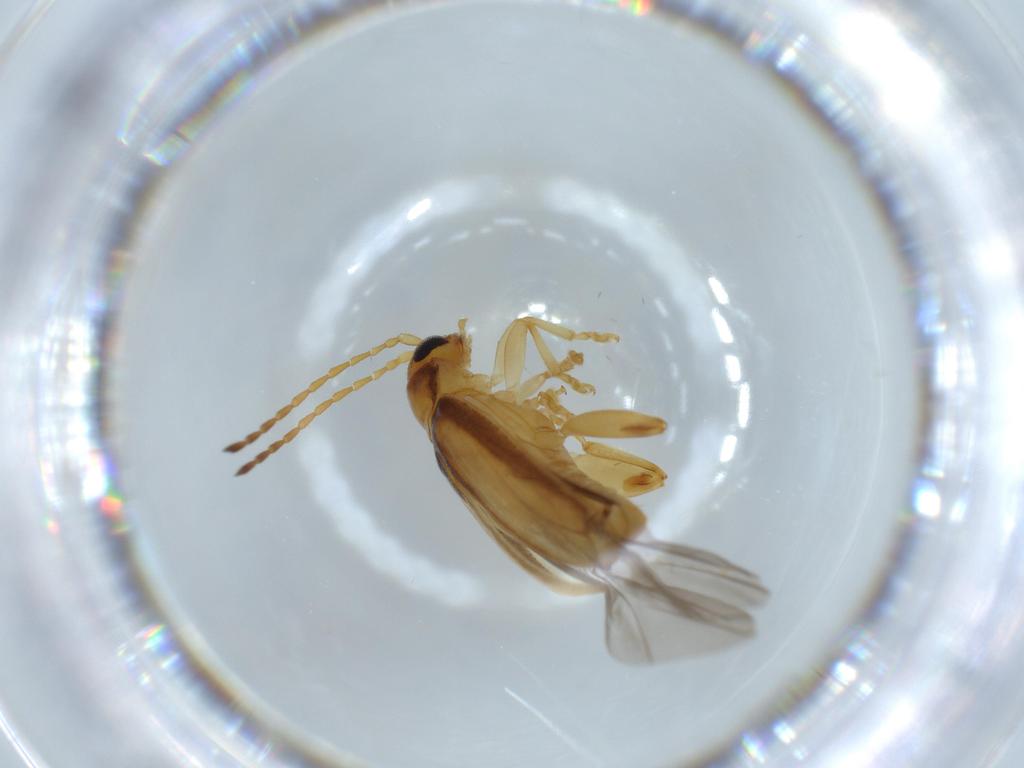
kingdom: Animalia
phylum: Arthropoda
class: Insecta
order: Coleoptera
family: Chrysomelidae
